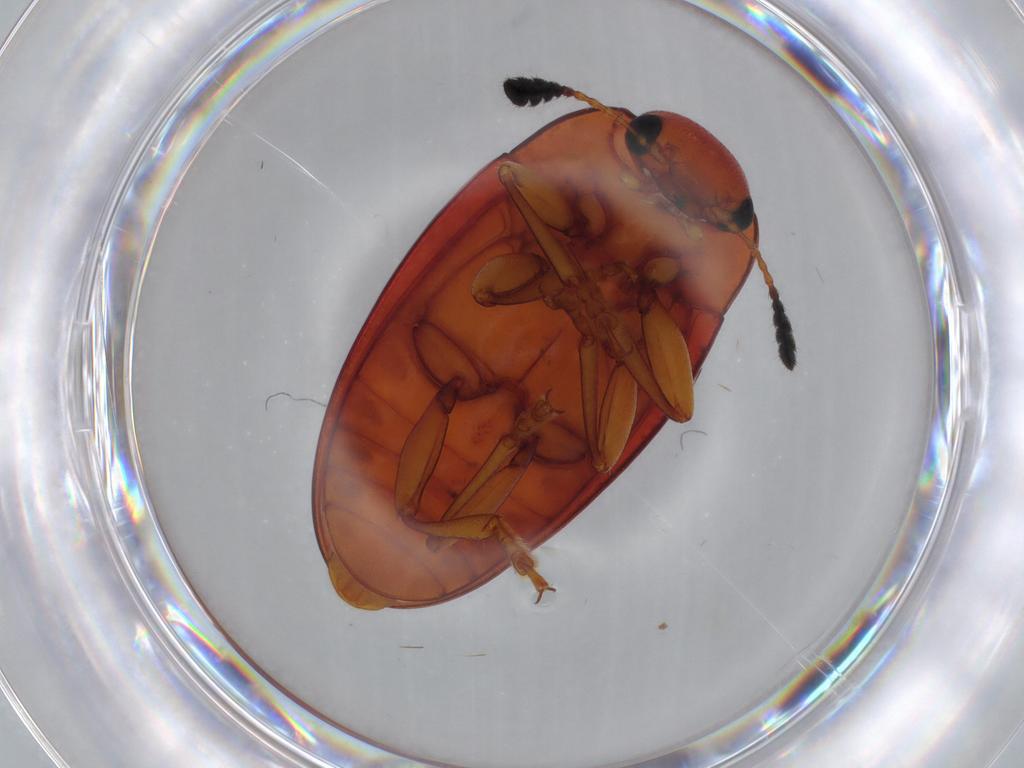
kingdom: Animalia
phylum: Arthropoda
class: Insecta
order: Coleoptera
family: Erotylidae
